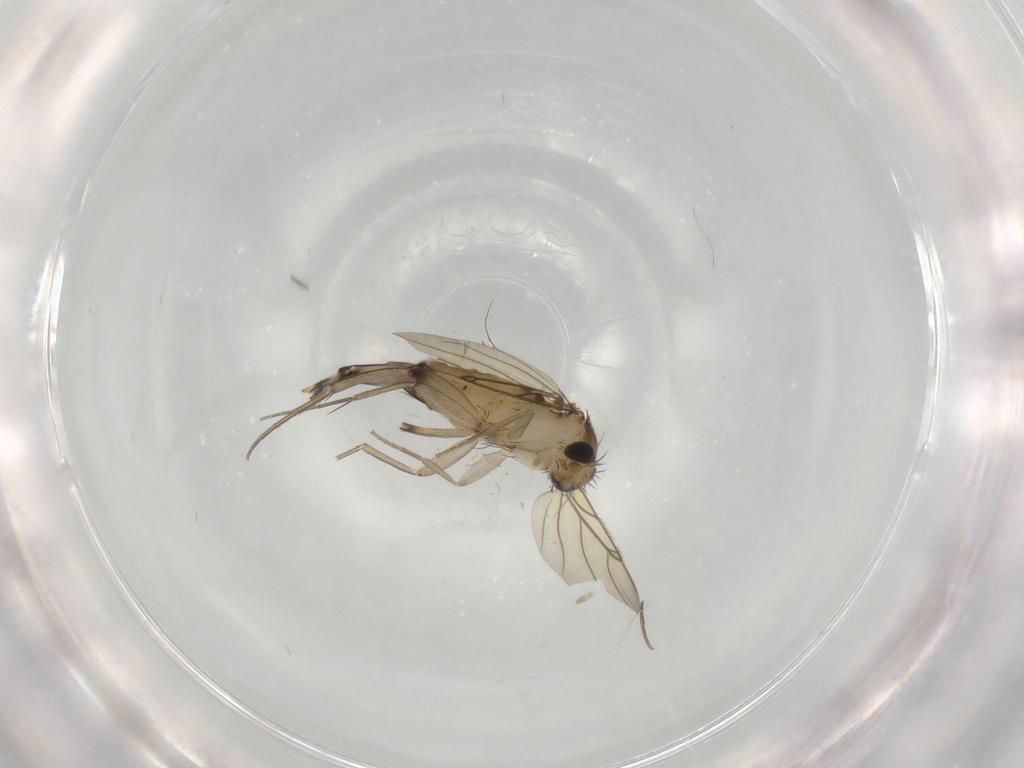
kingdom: Animalia
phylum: Arthropoda
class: Insecta
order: Diptera
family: Phoridae
